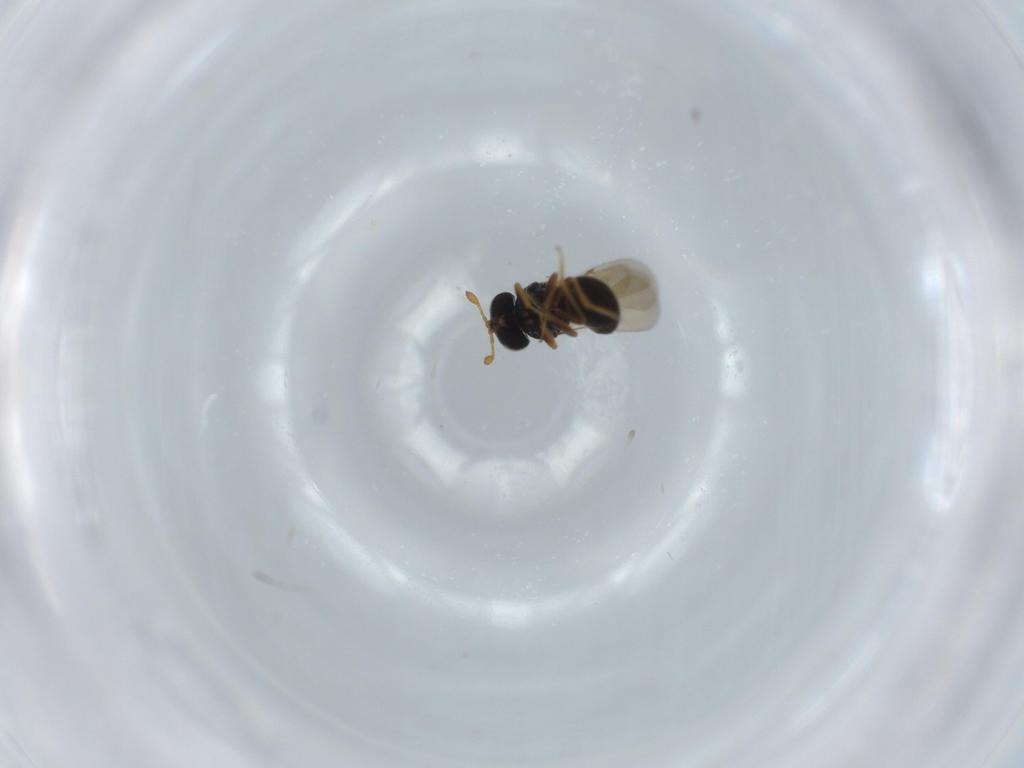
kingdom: Animalia
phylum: Arthropoda
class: Insecta
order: Hymenoptera
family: Scelionidae
